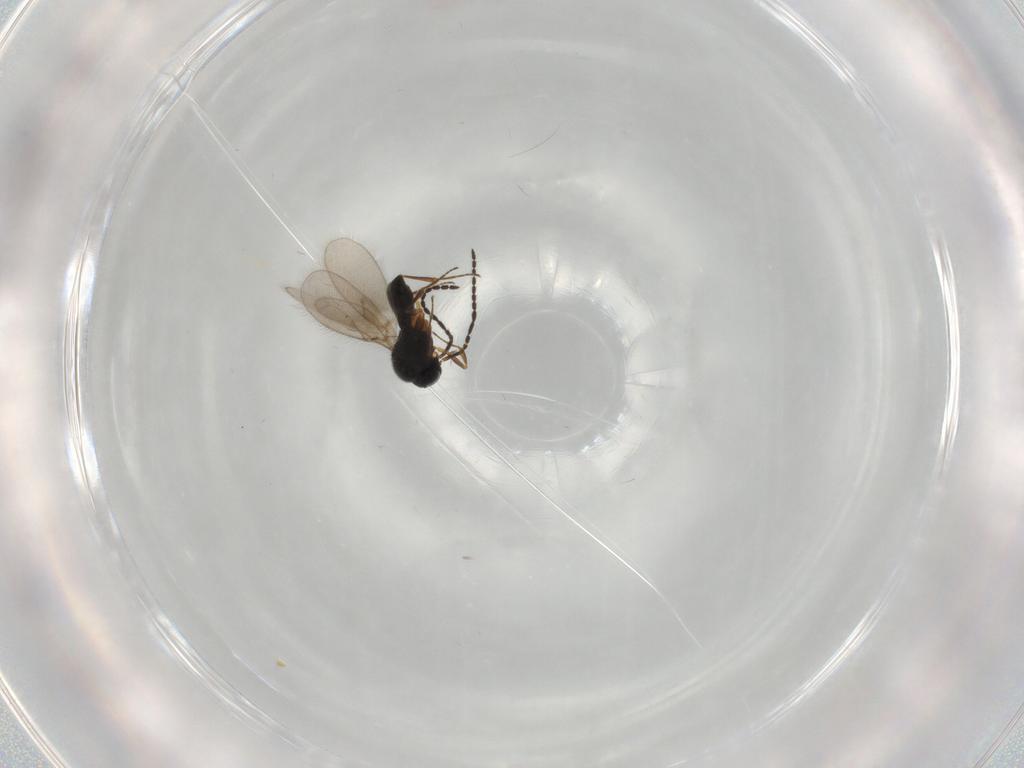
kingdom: Animalia
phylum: Arthropoda
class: Insecta
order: Hymenoptera
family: Scelionidae
